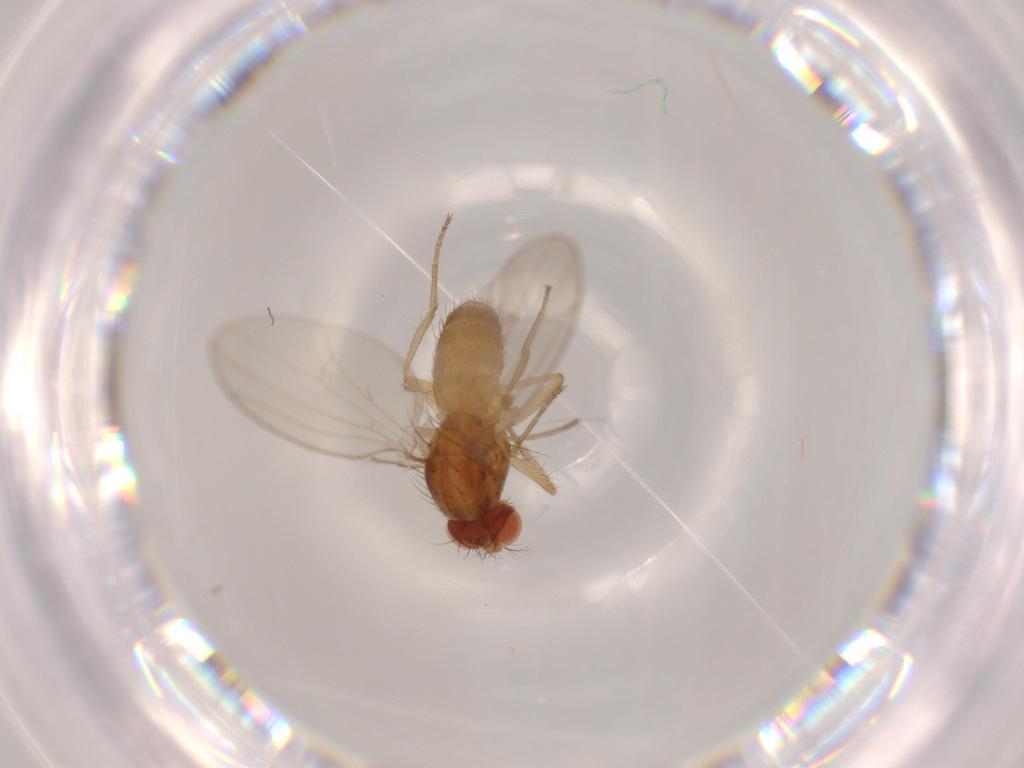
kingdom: Animalia
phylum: Arthropoda
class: Insecta
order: Diptera
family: Drosophilidae
